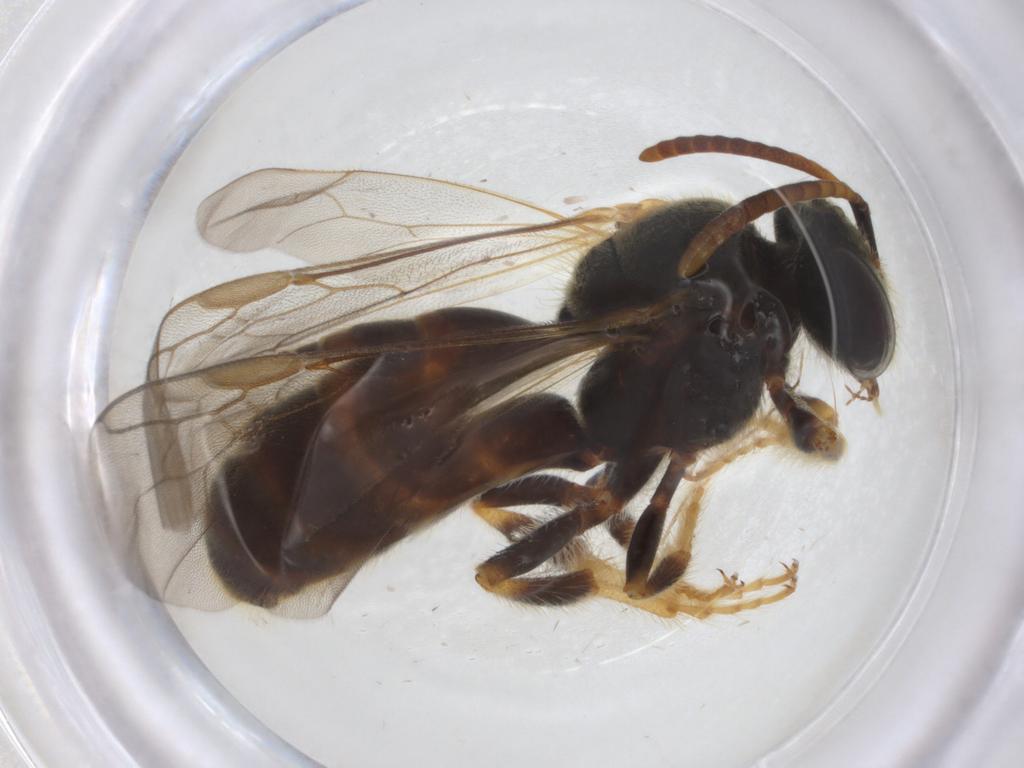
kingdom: Animalia
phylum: Arthropoda
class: Insecta
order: Hymenoptera
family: Halictidae
